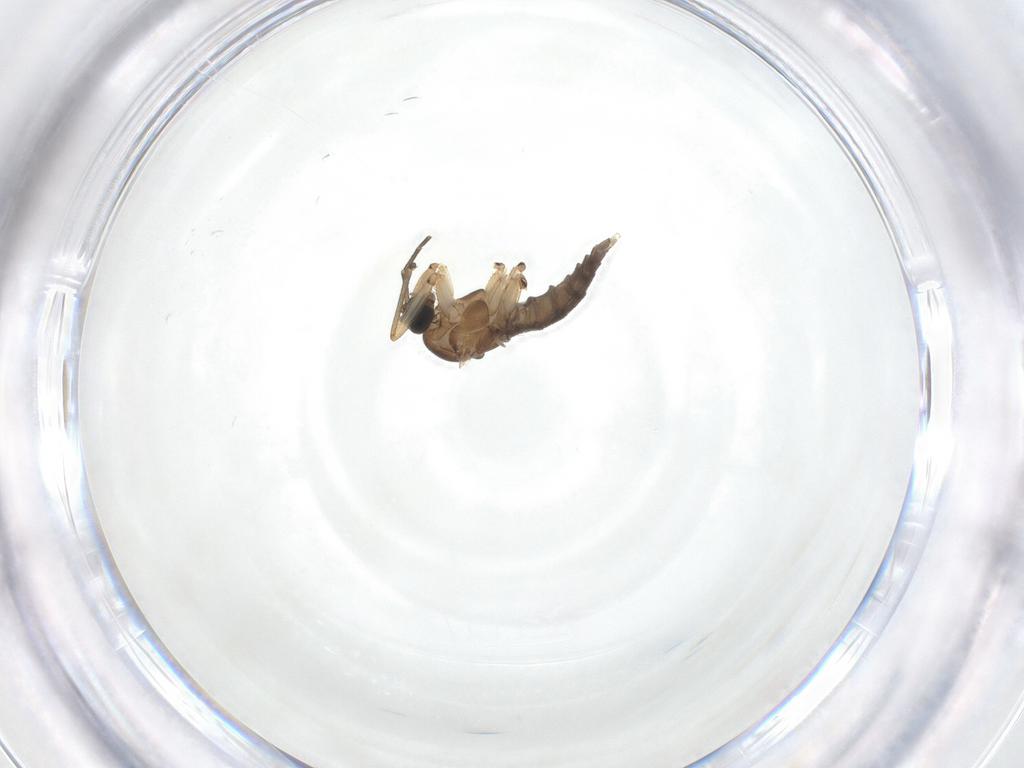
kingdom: Animalia
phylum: Arthropoda
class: Insecta
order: Diptera
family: Sciaridae
